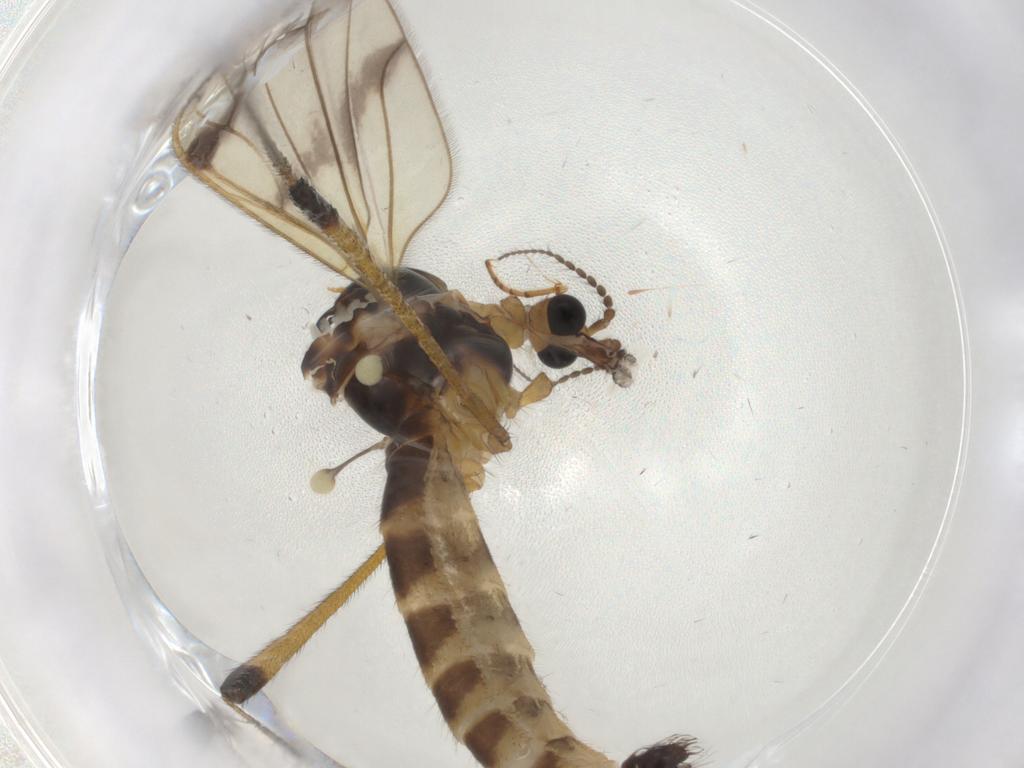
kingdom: Animalia
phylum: Arthropoda
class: Insecta
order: Diptera
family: Limoniidae
